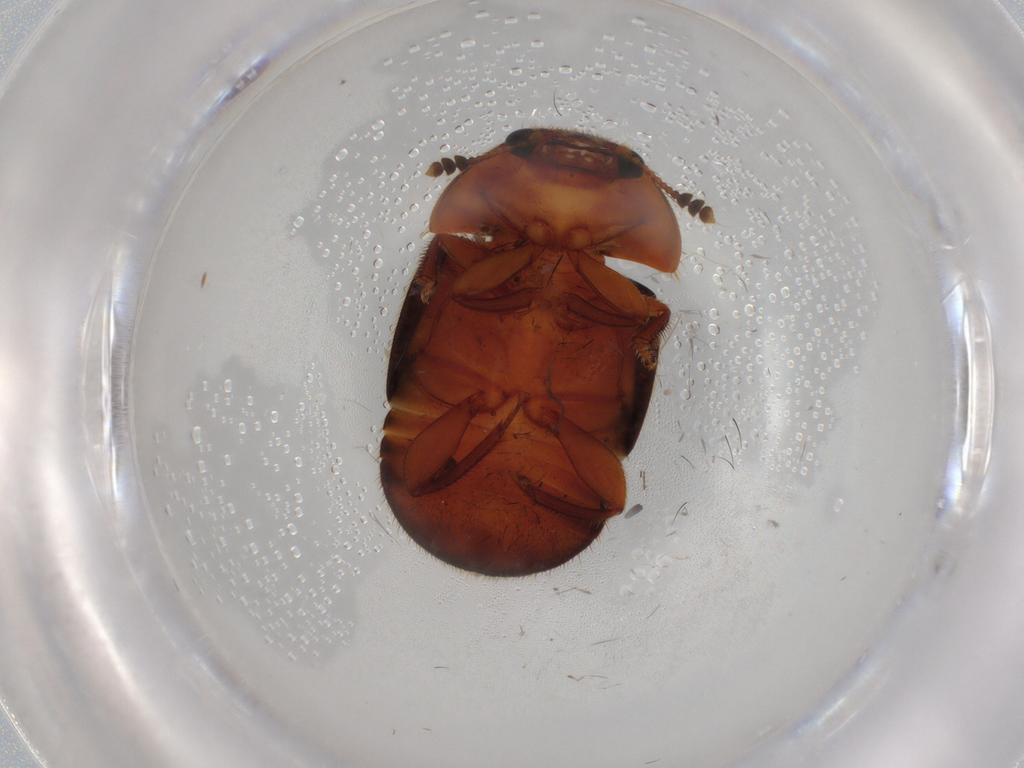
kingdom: Animalia
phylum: Arthropoda
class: Insecta
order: Coleoptera
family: Nitidulidae
